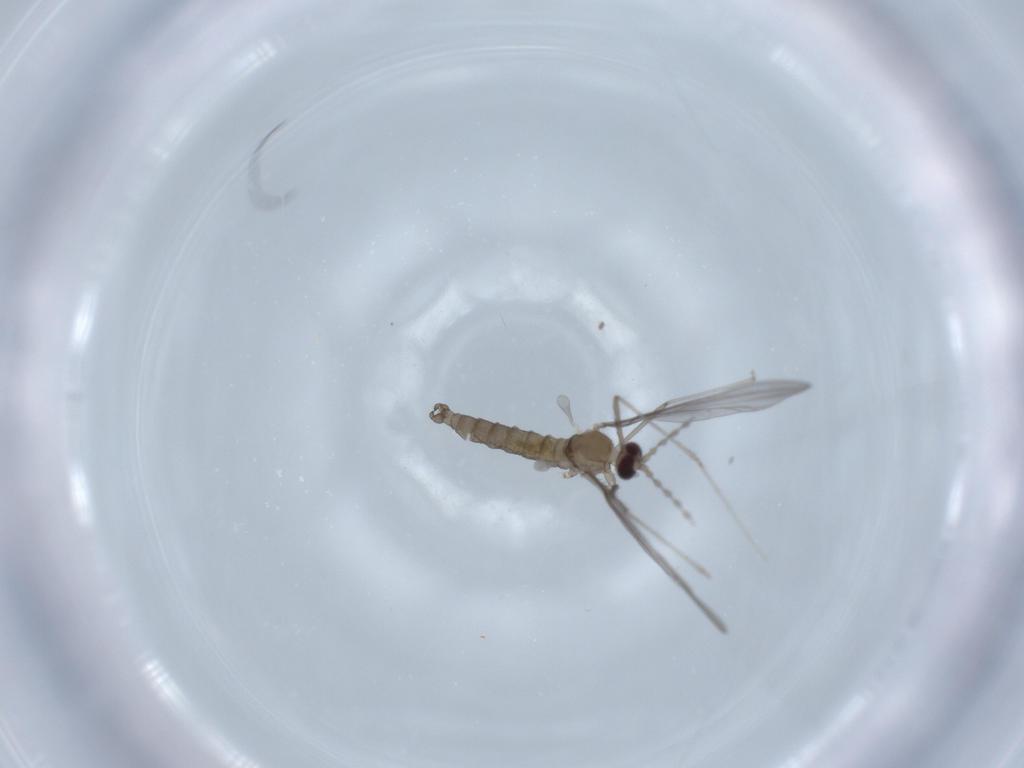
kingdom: Animalia
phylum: Arthropoda
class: Insecta
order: Diptera
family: Cecidomyiidae
